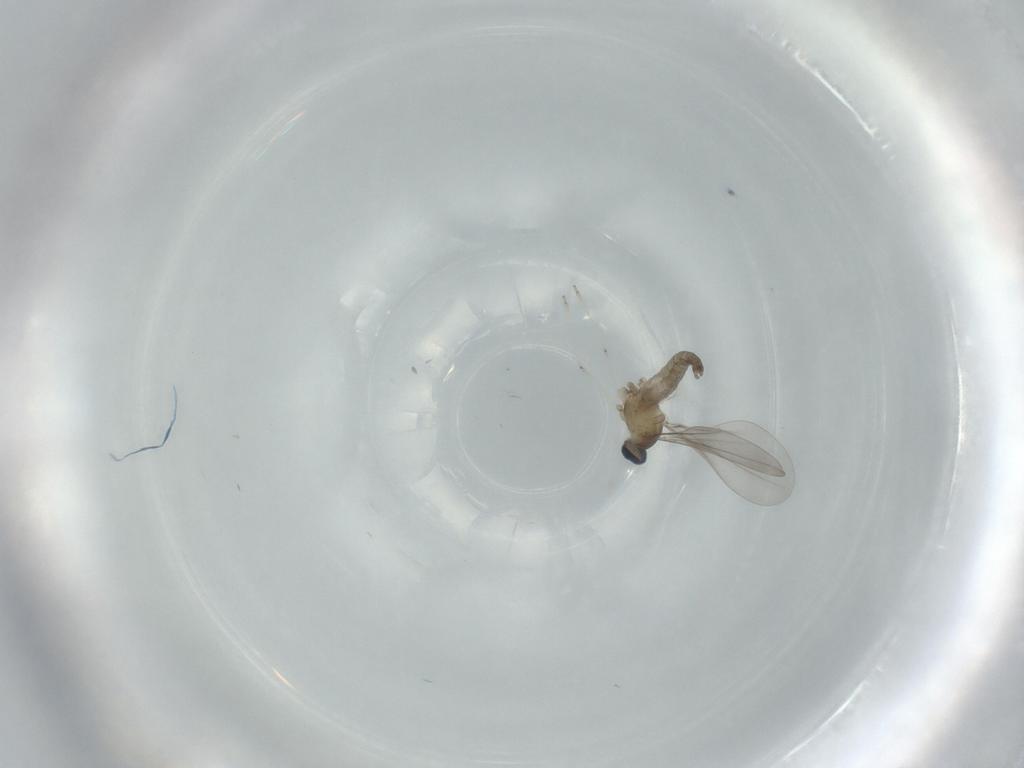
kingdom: Animalia
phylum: Arthropoda
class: Insecta
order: Diptera
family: Cecidomyiidae
